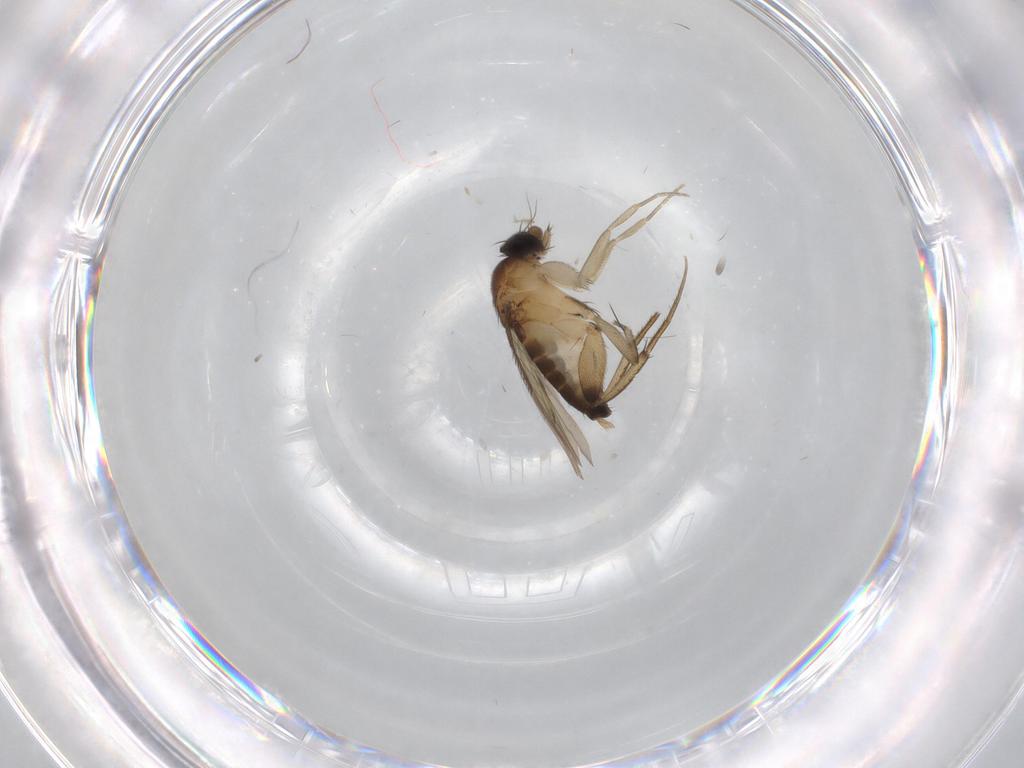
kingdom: Animalia
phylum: Arthropoda
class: Insecta
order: Diptera
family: Phoridae
